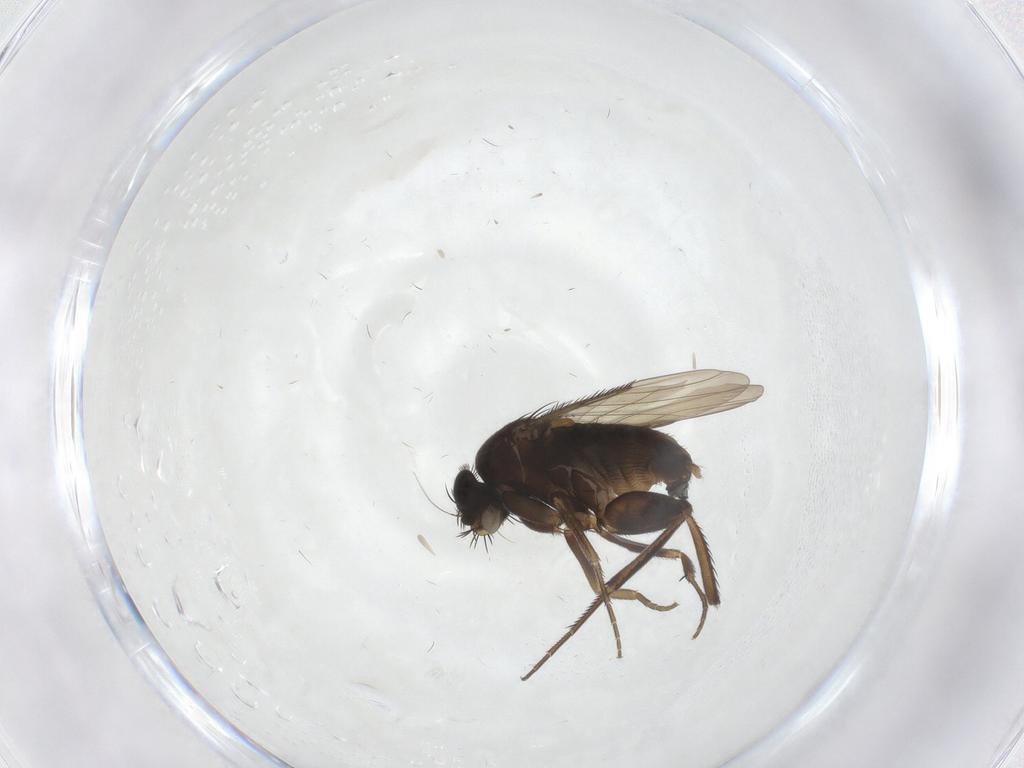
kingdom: Animalia
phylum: Arthropoda
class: Insecta
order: Diptera
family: Phoridae
